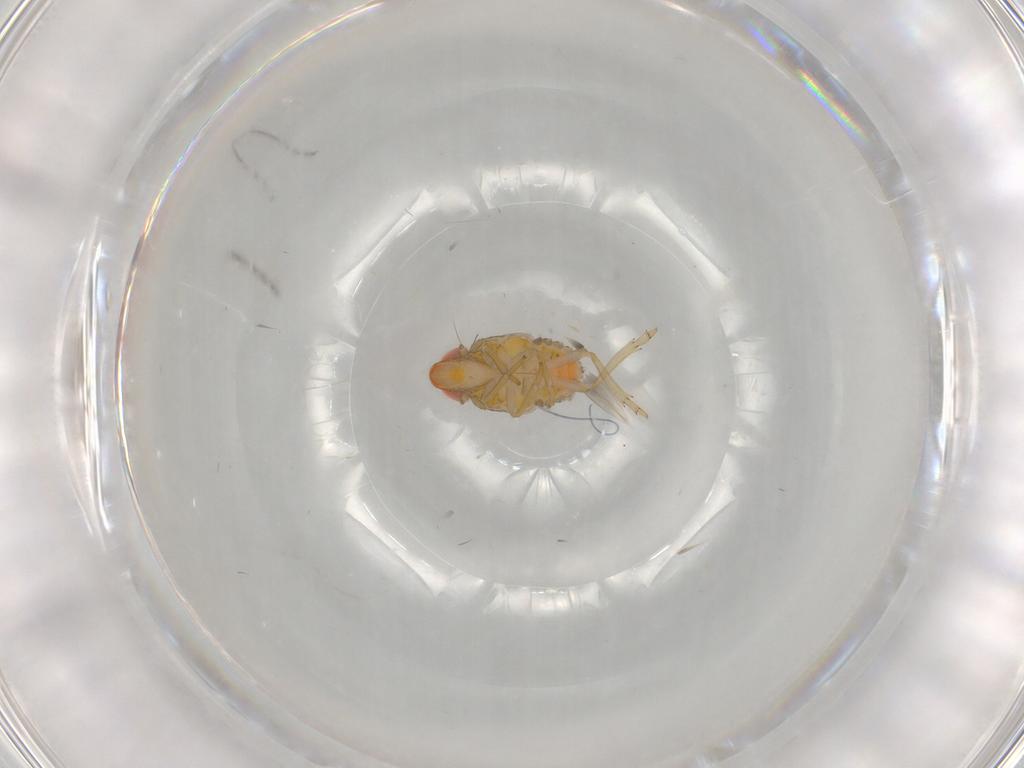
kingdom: Animalia
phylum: Arthropoda
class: Insecta
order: Hemiptera
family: Fulgoroidea_incertae_sedis
